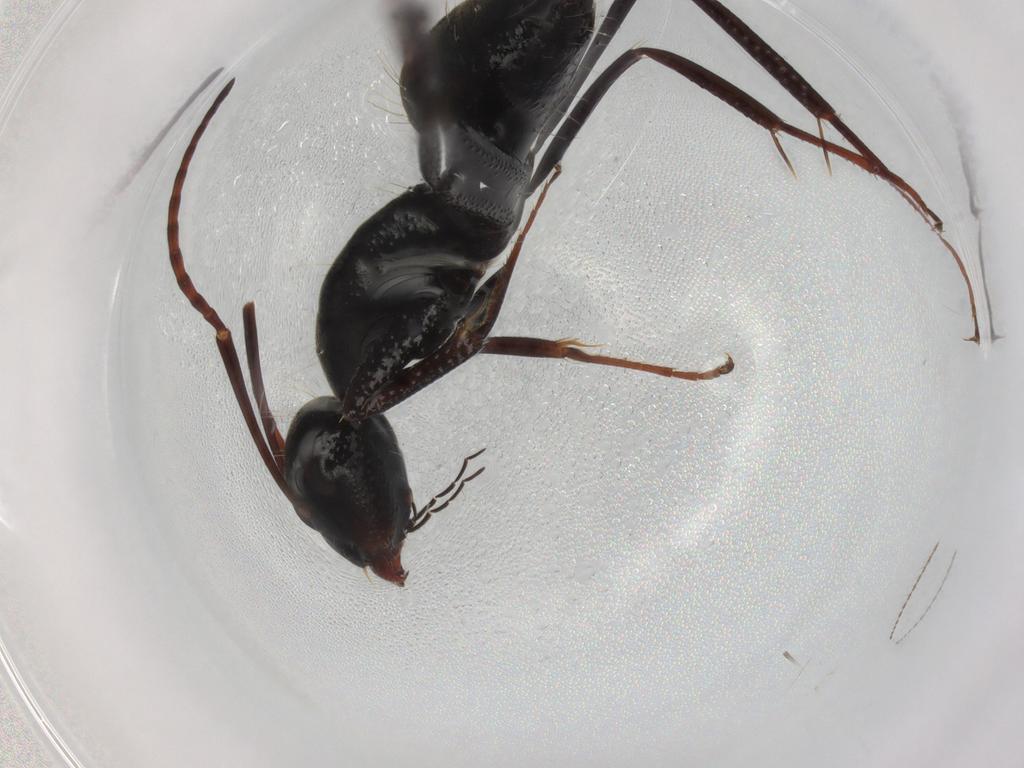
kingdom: Animalia
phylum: Arthropoda
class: Insecta
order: Hymenoptera
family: Formicidae
